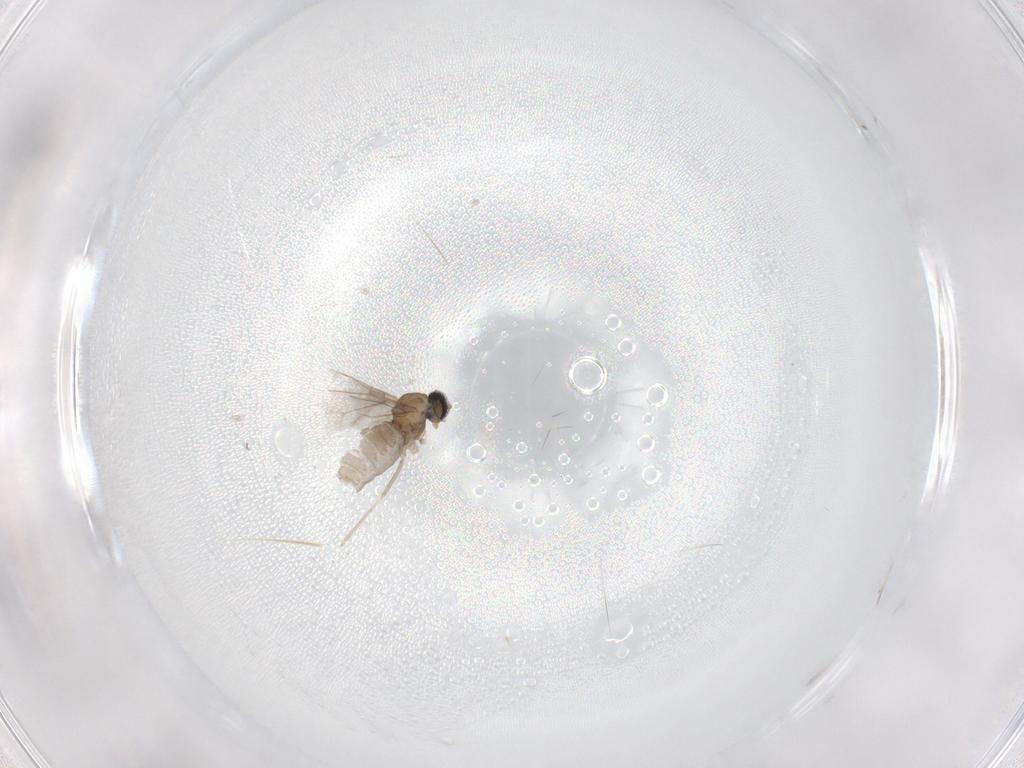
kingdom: Animalia
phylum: Arthropoda
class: Insecta
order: Diptera
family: Cecidomyiidae
